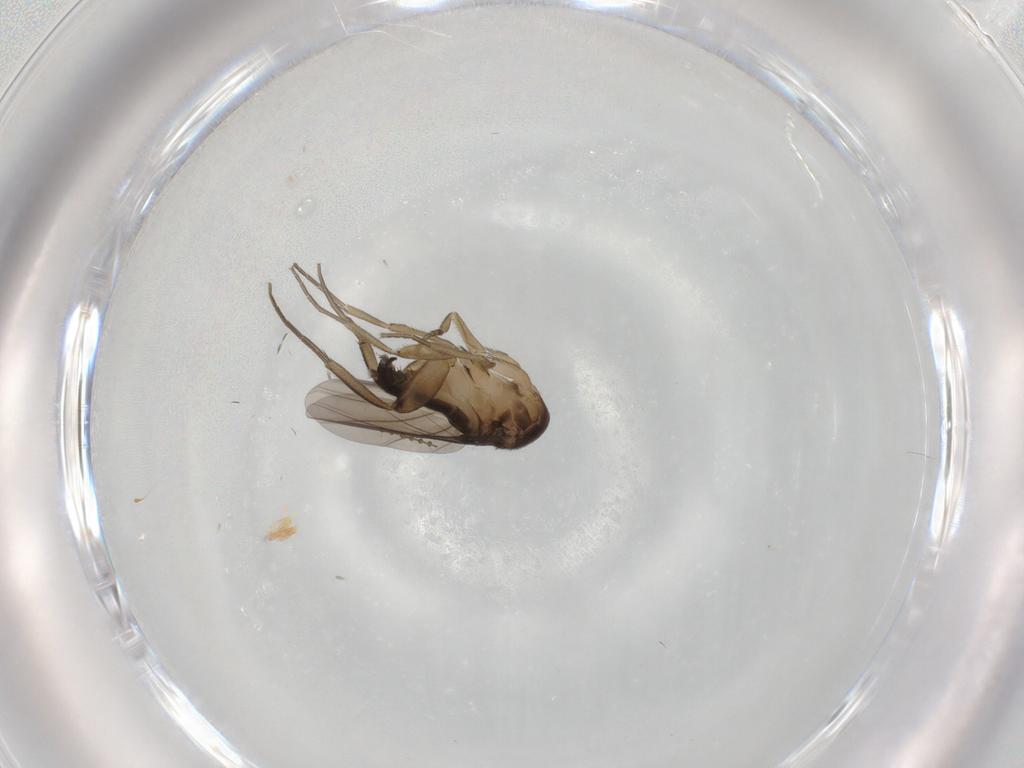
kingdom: Animalia
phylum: Arthropoda
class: Insecta
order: Diptera
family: Phoridae
